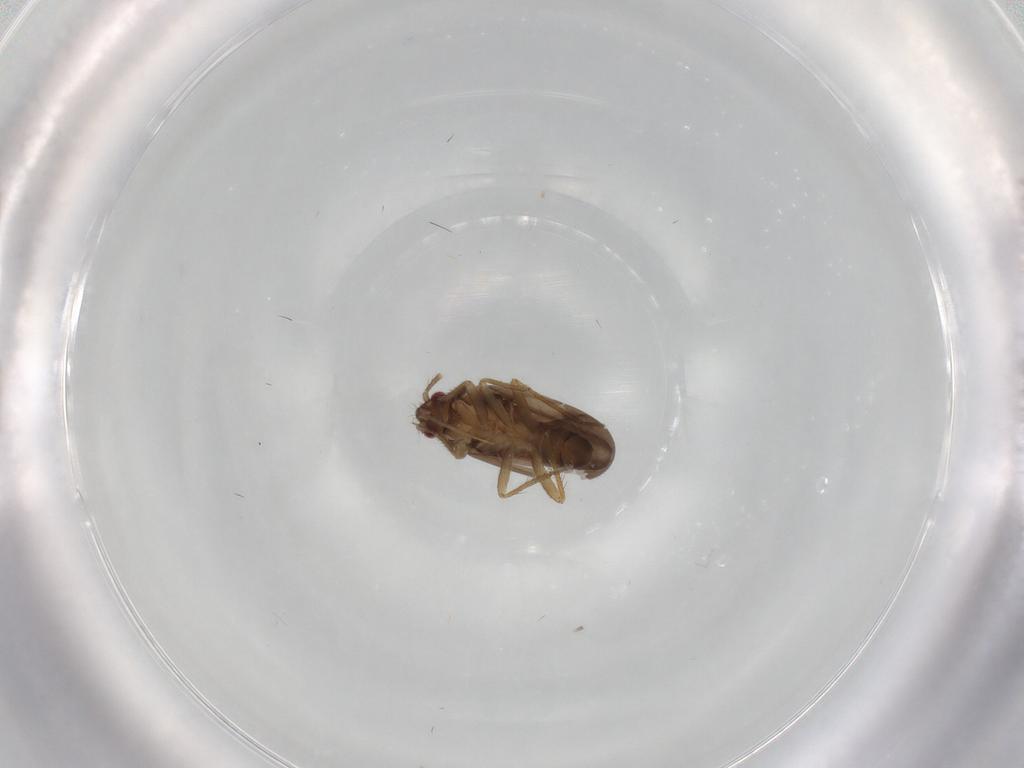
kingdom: Animalia
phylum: Arthropoda
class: Insecta
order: Hemiptera
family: Ceratocombidae
